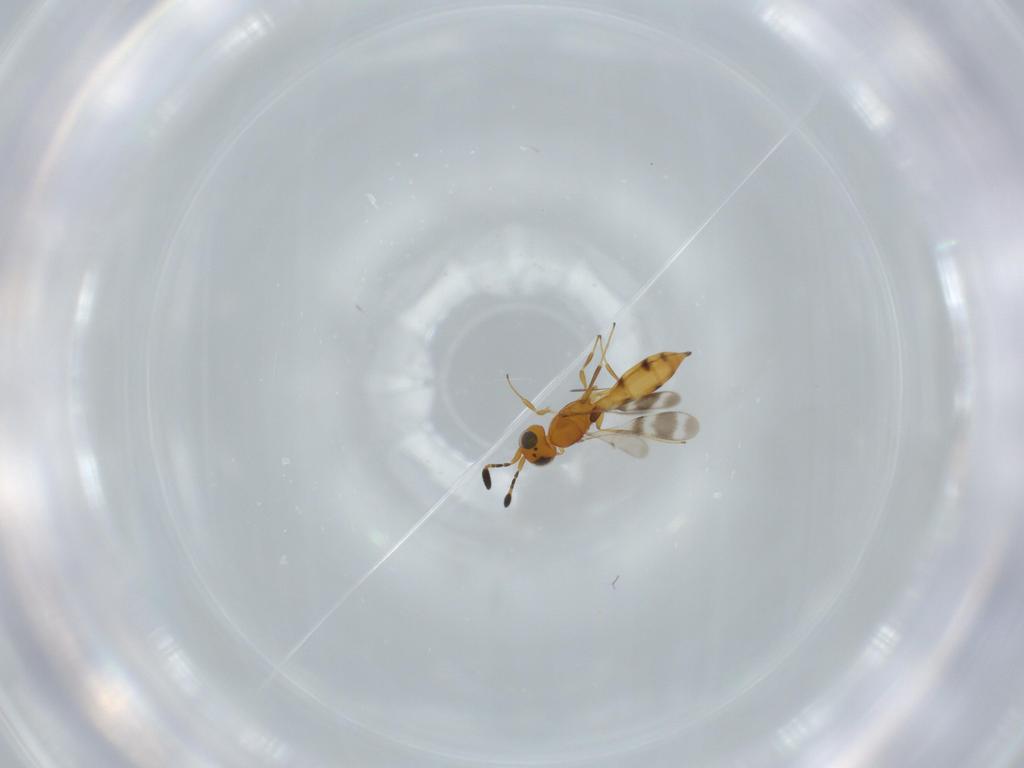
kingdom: Animalia
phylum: Arthropoda
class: Insecta
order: Hymenoptera
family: Scelionidae
